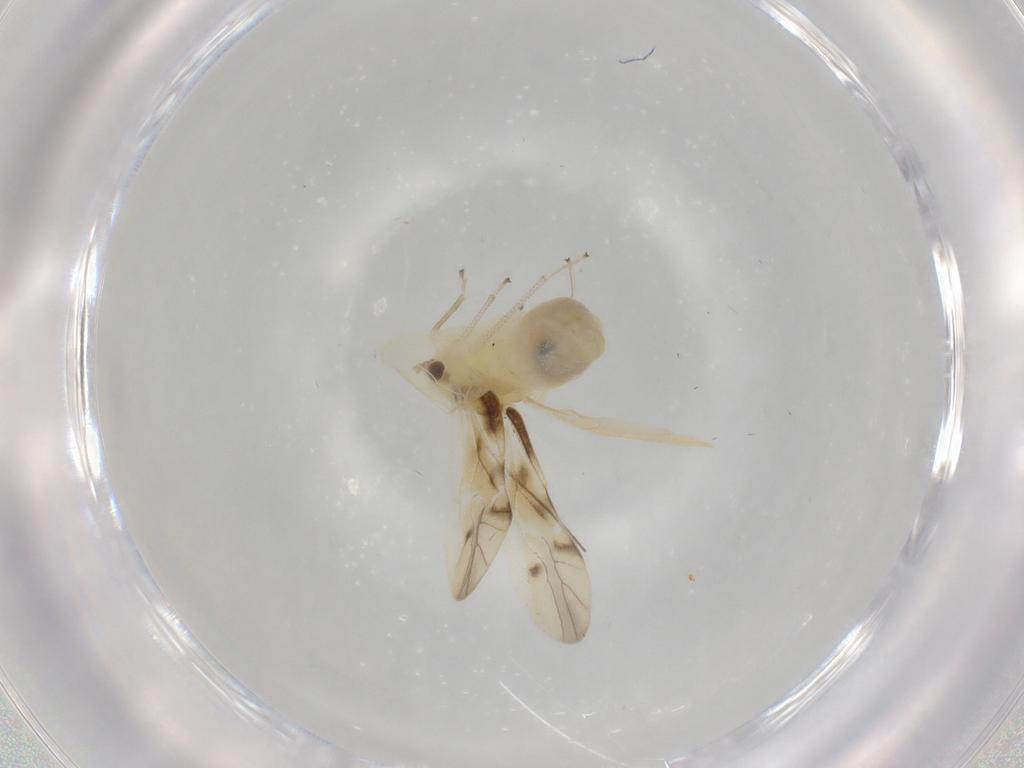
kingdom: Animalia
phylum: Arthropoda
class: Insecta
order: Psocodea
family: Caeciliusidae
